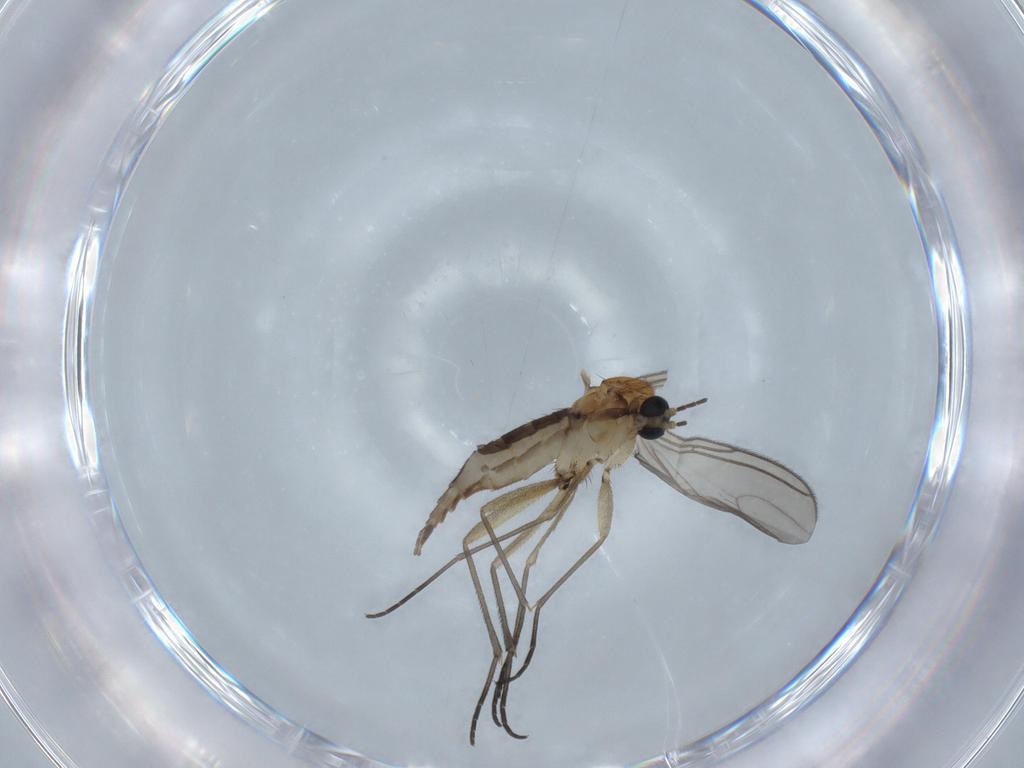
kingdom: Animalia
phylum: Arthropoda
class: Insecta
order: Diptera
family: Sciaridae
